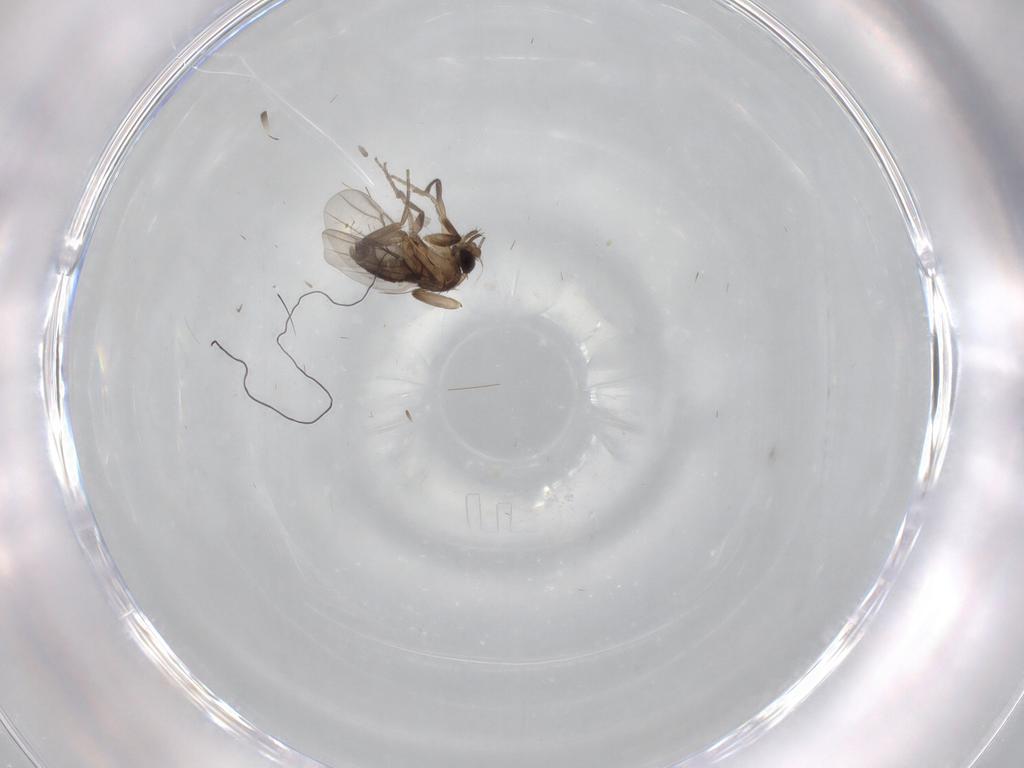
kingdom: Animalia
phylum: Arthropoda
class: Insecta
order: Diptera
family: Phoridae
